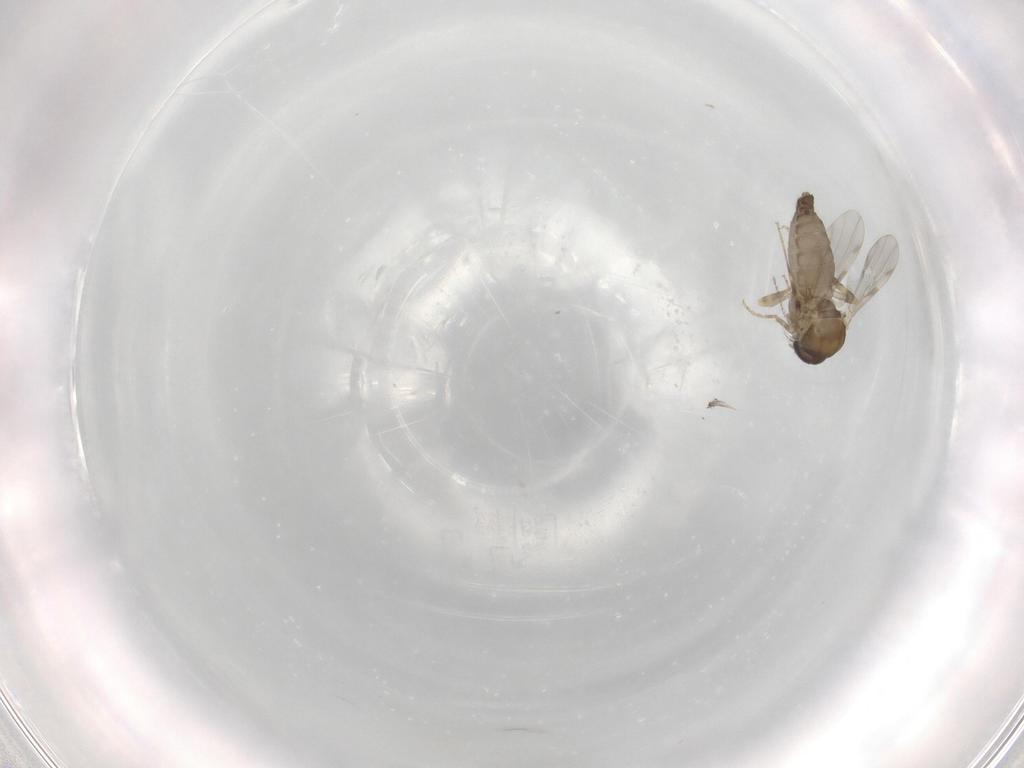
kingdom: Animalia
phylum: Arthropoda
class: Insecta
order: Diptera
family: Ceratopogonidae
